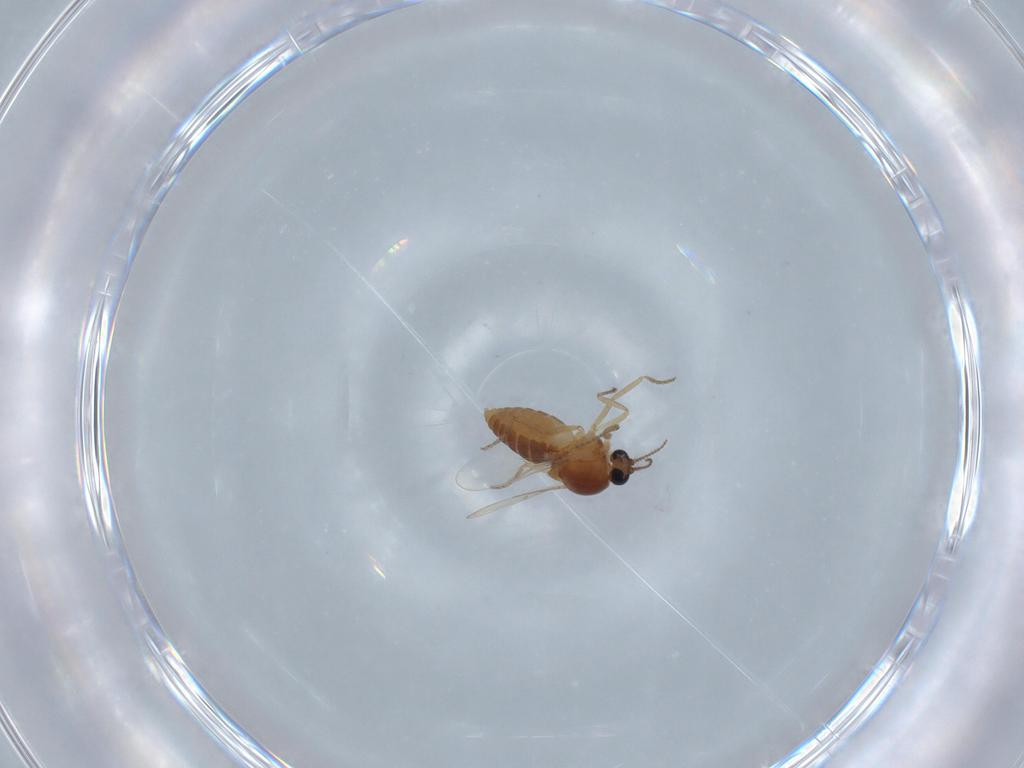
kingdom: Animalia
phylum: Arthropoda
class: Insecta
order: Diptera
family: Ceratopogonidae
